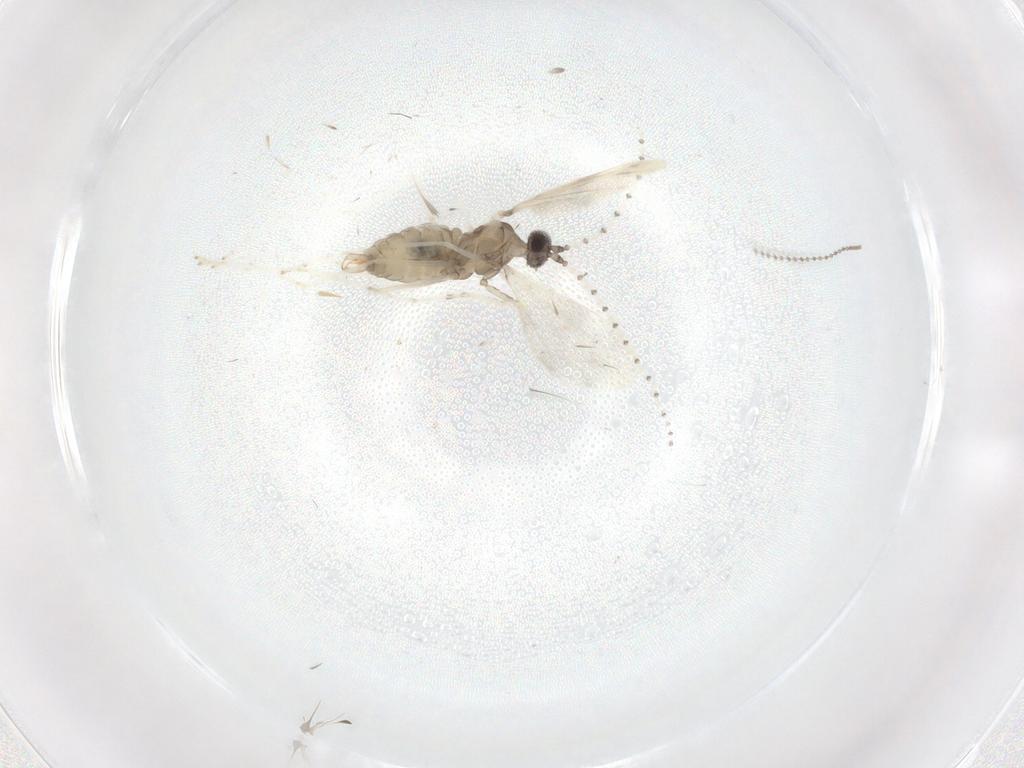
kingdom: Animalia
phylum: Arthropoda
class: Insecta
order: Diptera
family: Cecidomyiidae
